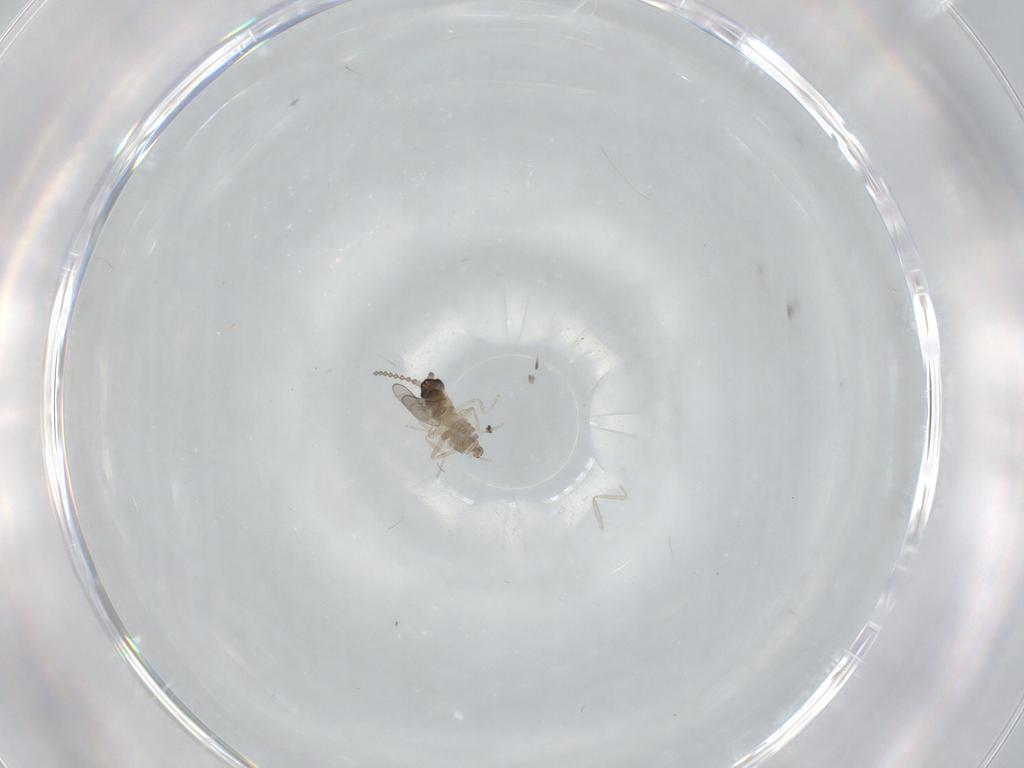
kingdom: Animalia
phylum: Arthropoda
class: Insecta
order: Diptera
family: Cecidomyiidae
